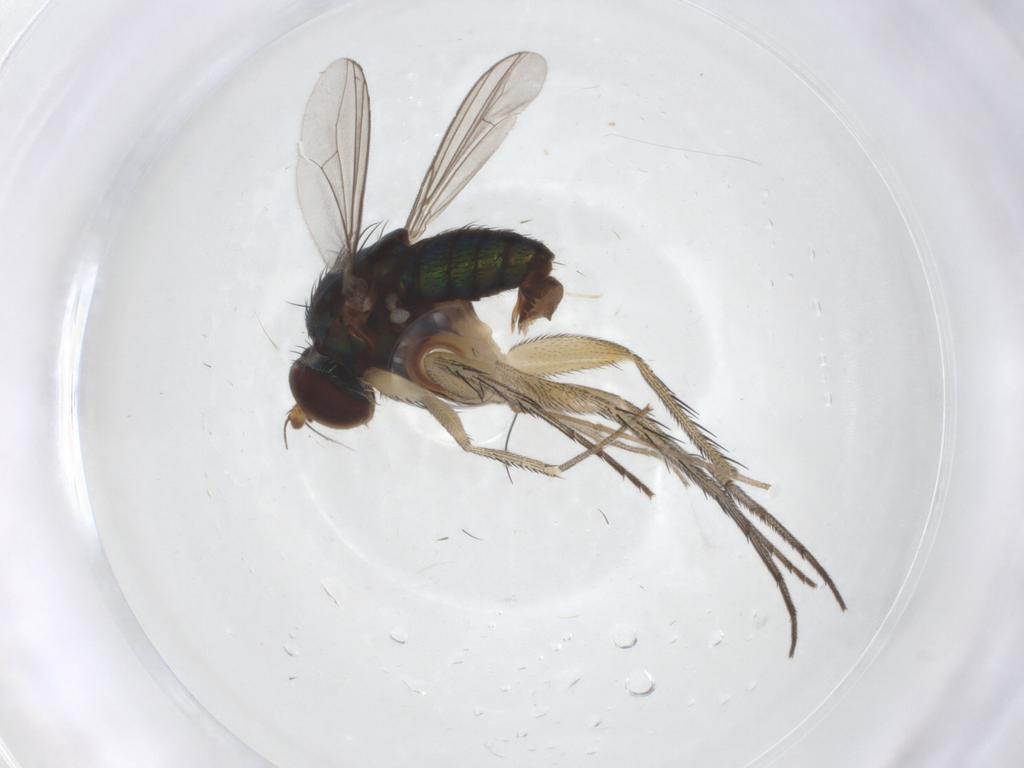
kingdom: Animalia
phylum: Arthropoda
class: Insecta
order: Diptera
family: Dolichopodidae
